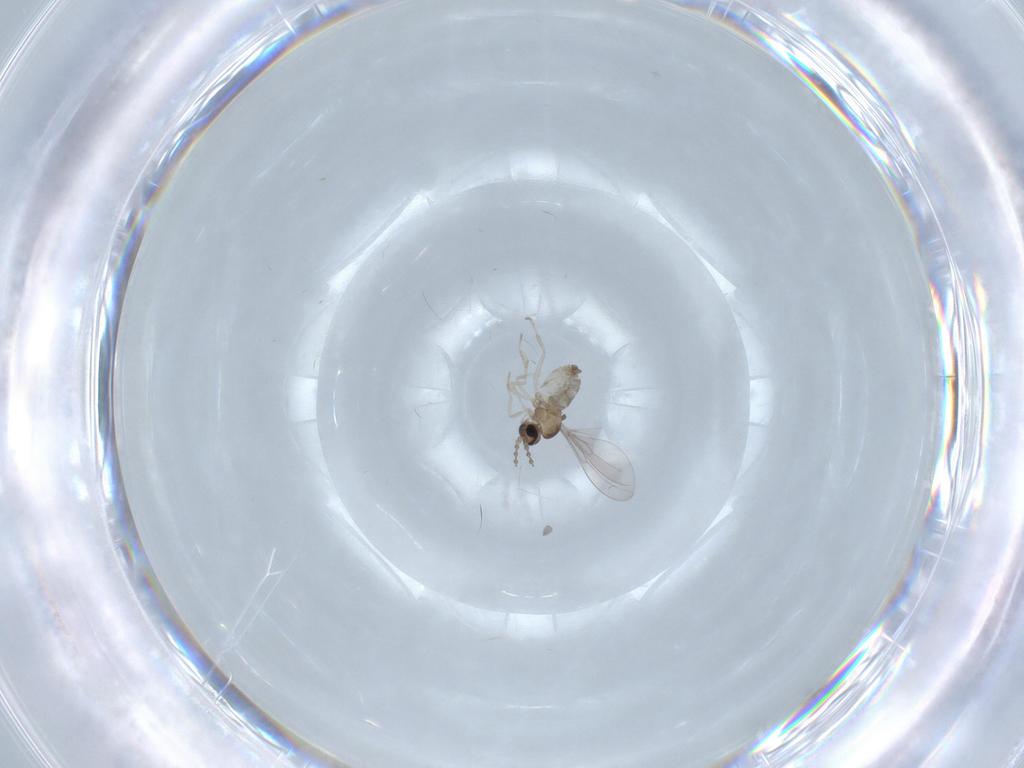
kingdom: Animalia
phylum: Arthropoda
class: Insecta
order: Diptera
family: Cecidomyiidae
